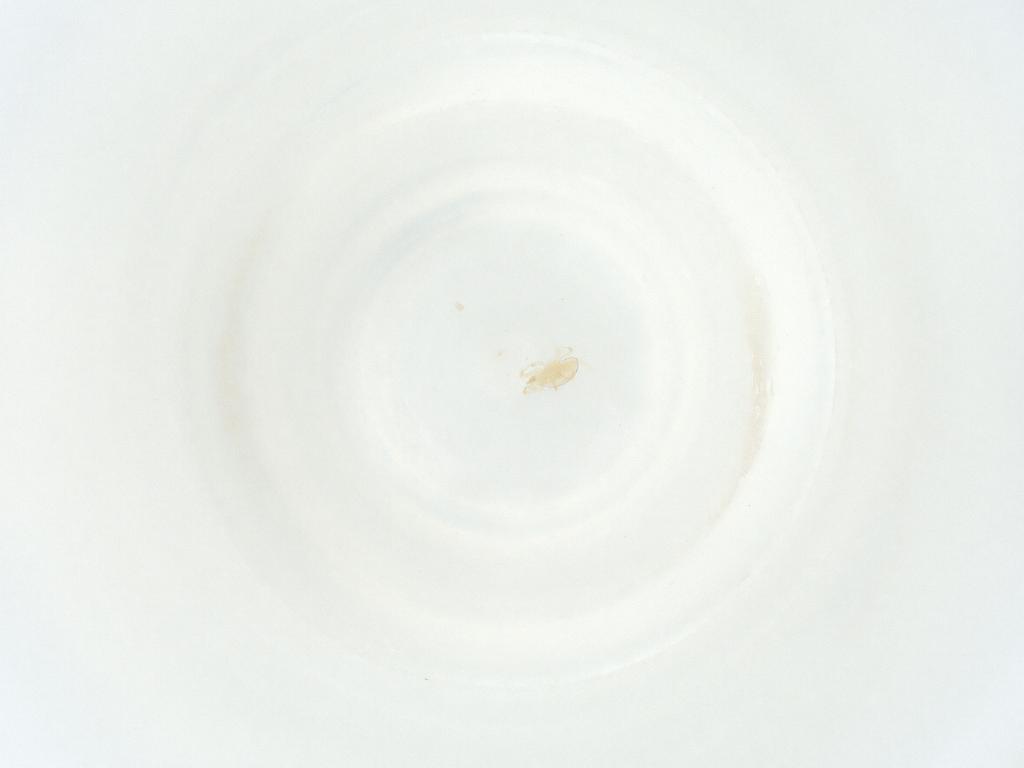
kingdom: Animalia
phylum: Arthropoda
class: Arachnida
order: Mesostigmata
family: Phytoseiidae
